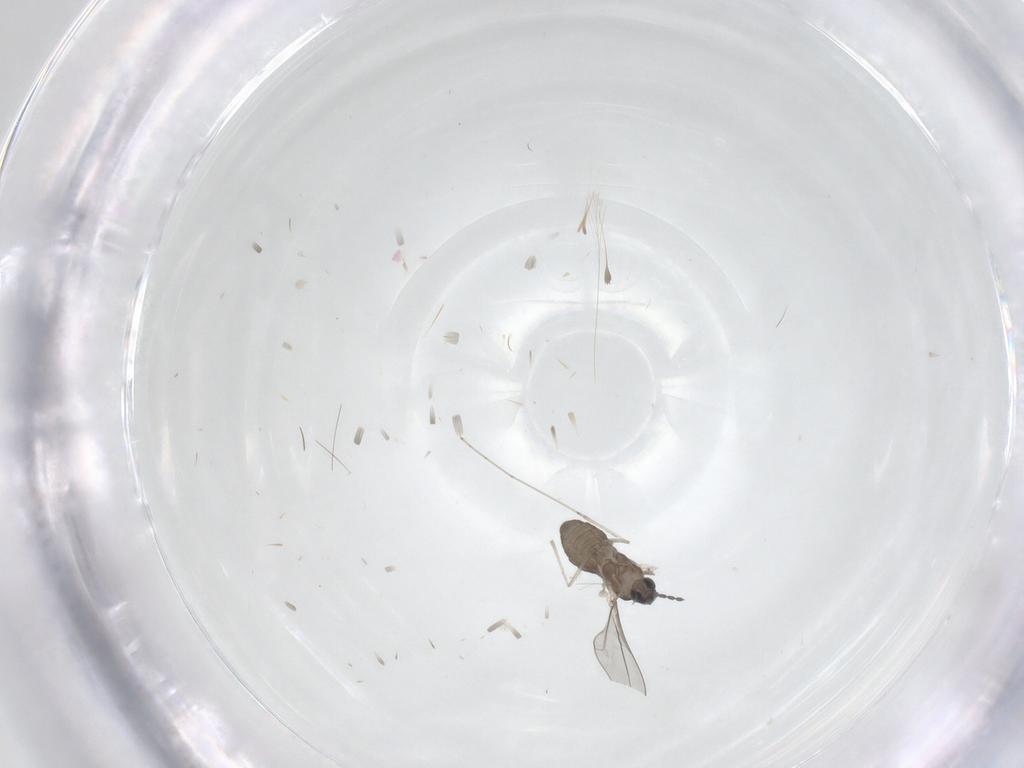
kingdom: Animalia
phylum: Arthropoda
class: Insecta
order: Diptera
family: Cecidomyiidae
